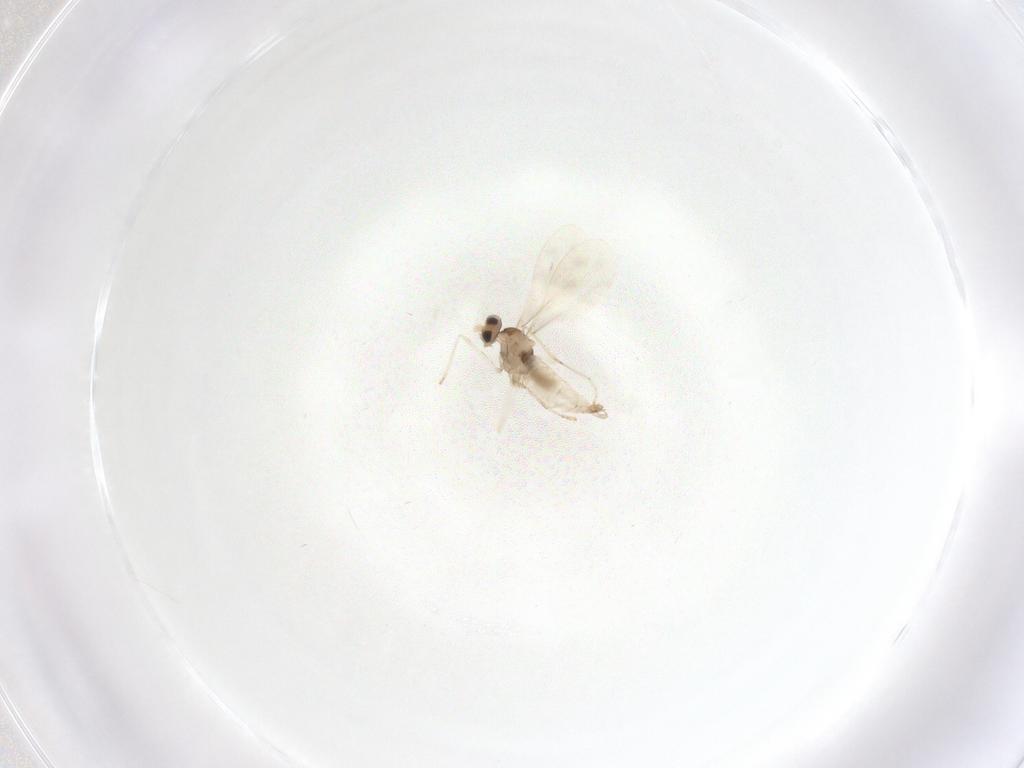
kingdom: Animalia
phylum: Arthropoda
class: Insecta
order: Diptera
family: Cecidomyiidae
